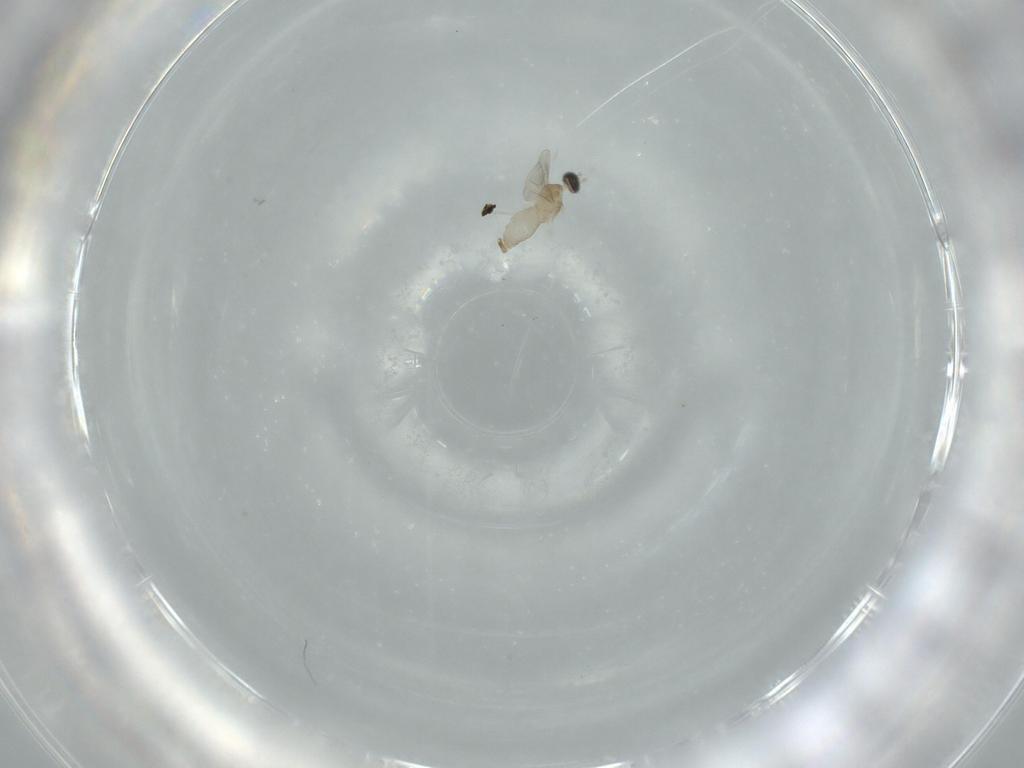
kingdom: Animalia
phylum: Arthropoda
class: Insecta
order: Diptera
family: Cecidomyiidae
